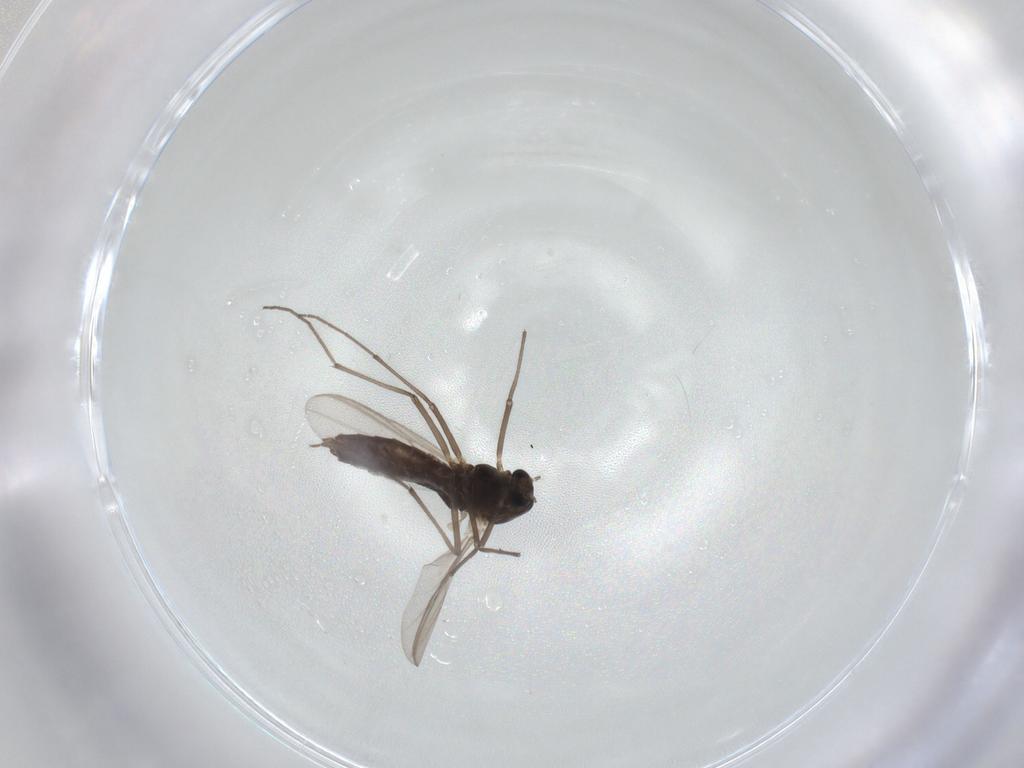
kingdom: Animalia
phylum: Arthropoda
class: Insecta
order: Diptera
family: Chironomidae
